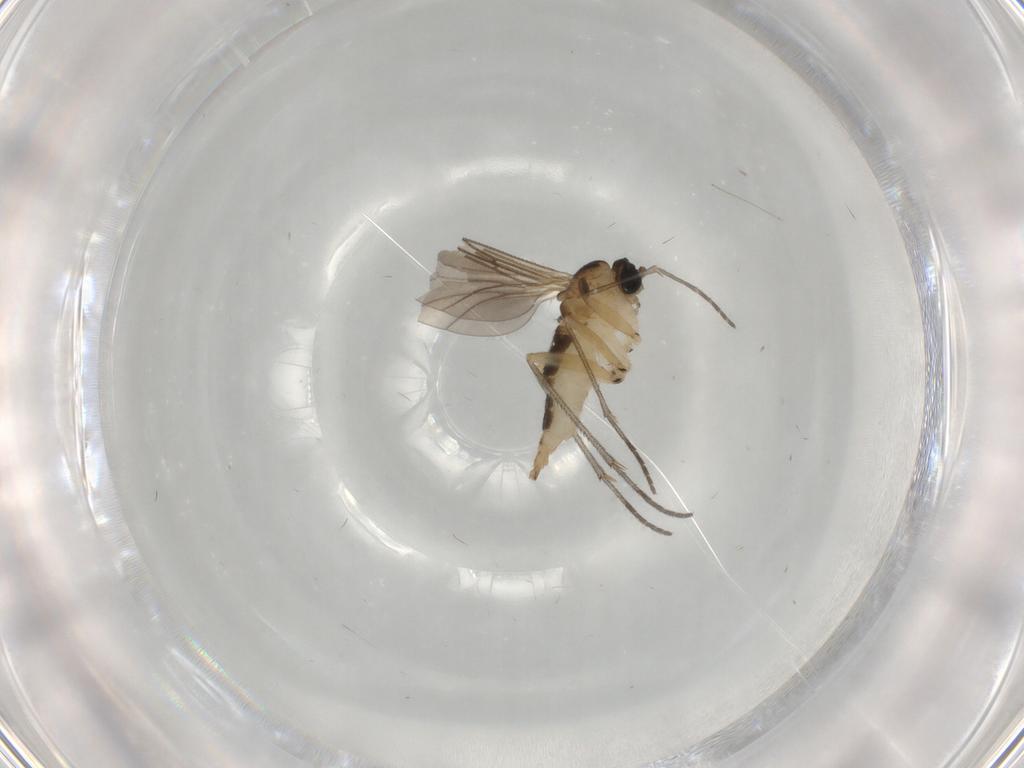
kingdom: Animalia
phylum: Arthropoda
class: Insecta
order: Diptera
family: Sciaridae
